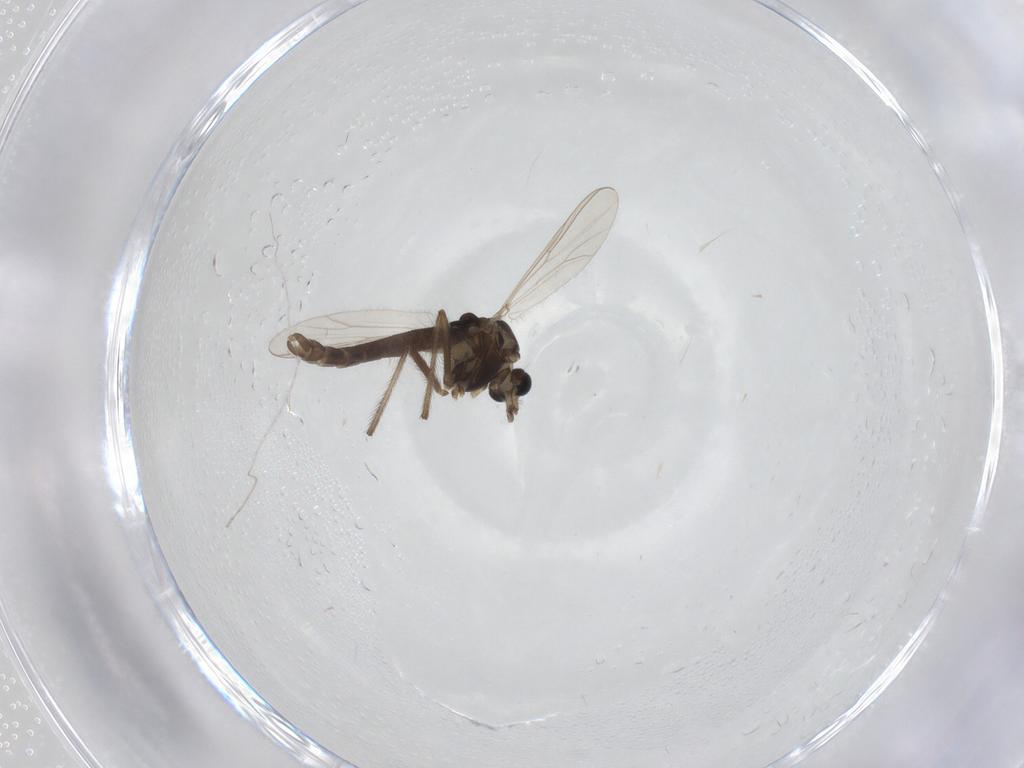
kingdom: Animalia
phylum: Arthropoda
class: Insecta
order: Diptera
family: Chironomidae
